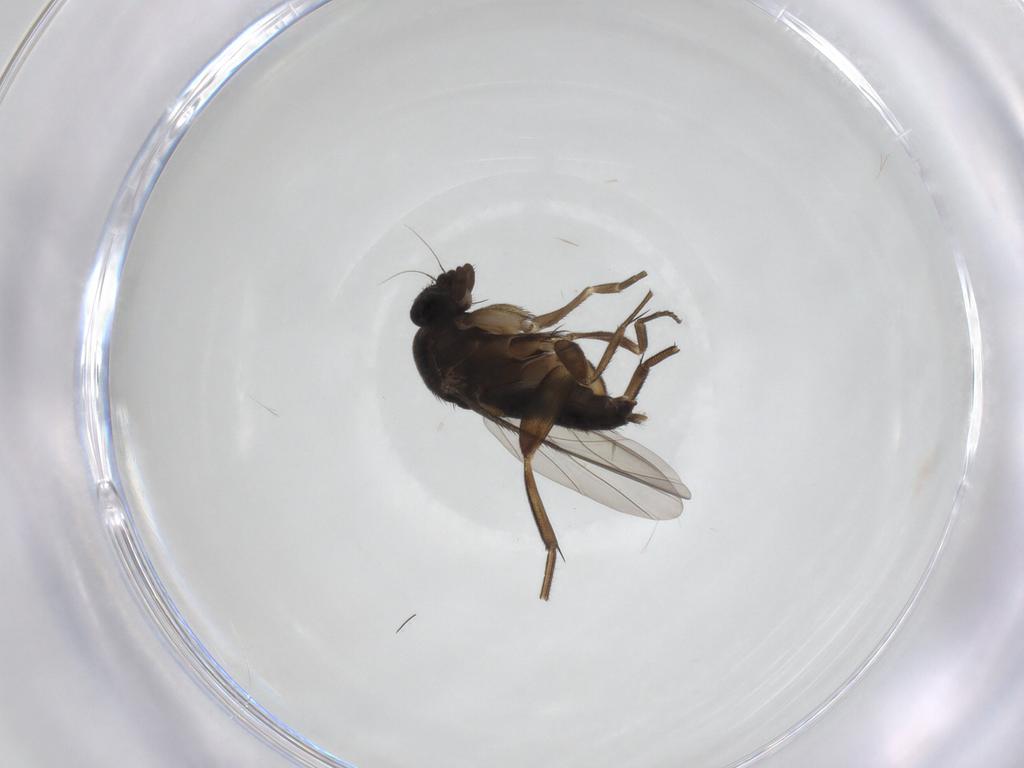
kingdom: Animalia
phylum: Arthropoda
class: Insecta
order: Diptera
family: Phoridae
